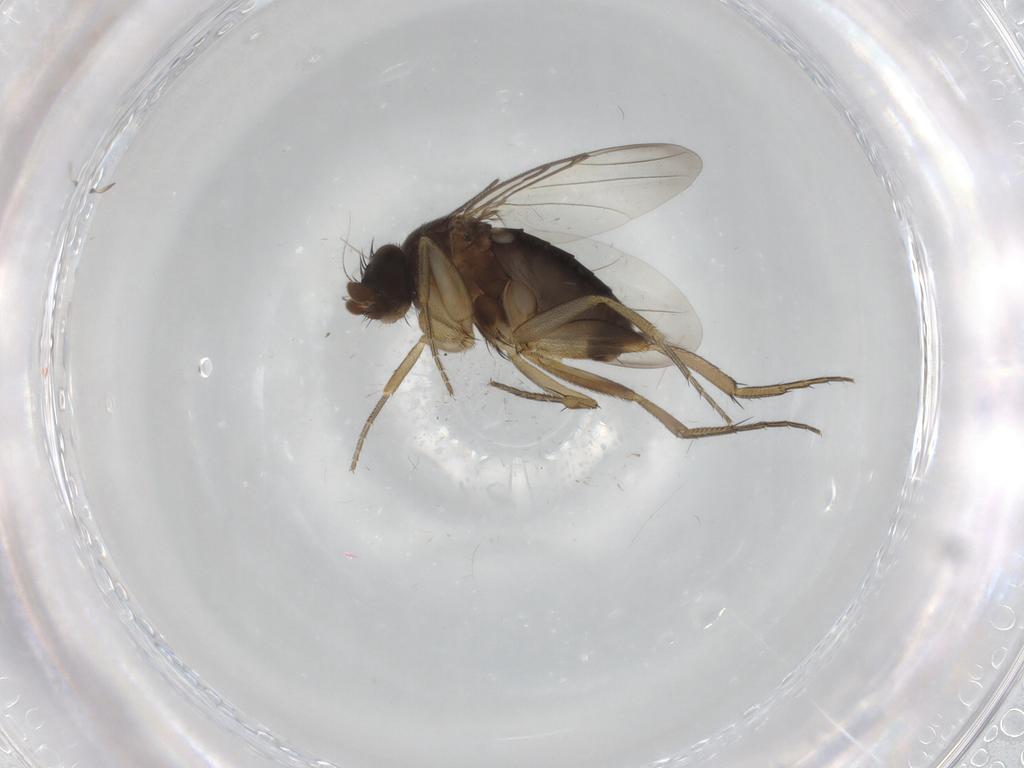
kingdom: Animalia
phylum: Arthropoda
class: Insecta
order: Diptera
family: Phoridae
